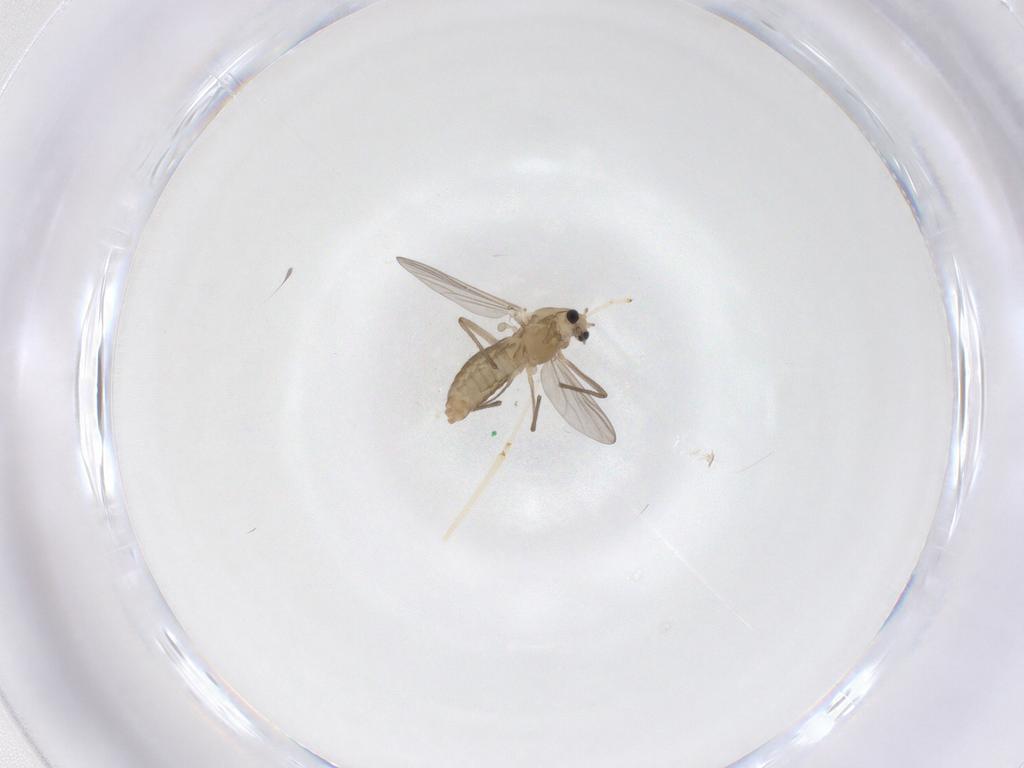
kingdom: Animalia
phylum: Arthropoda
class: Insecta
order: Diptera
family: Chironomidae
